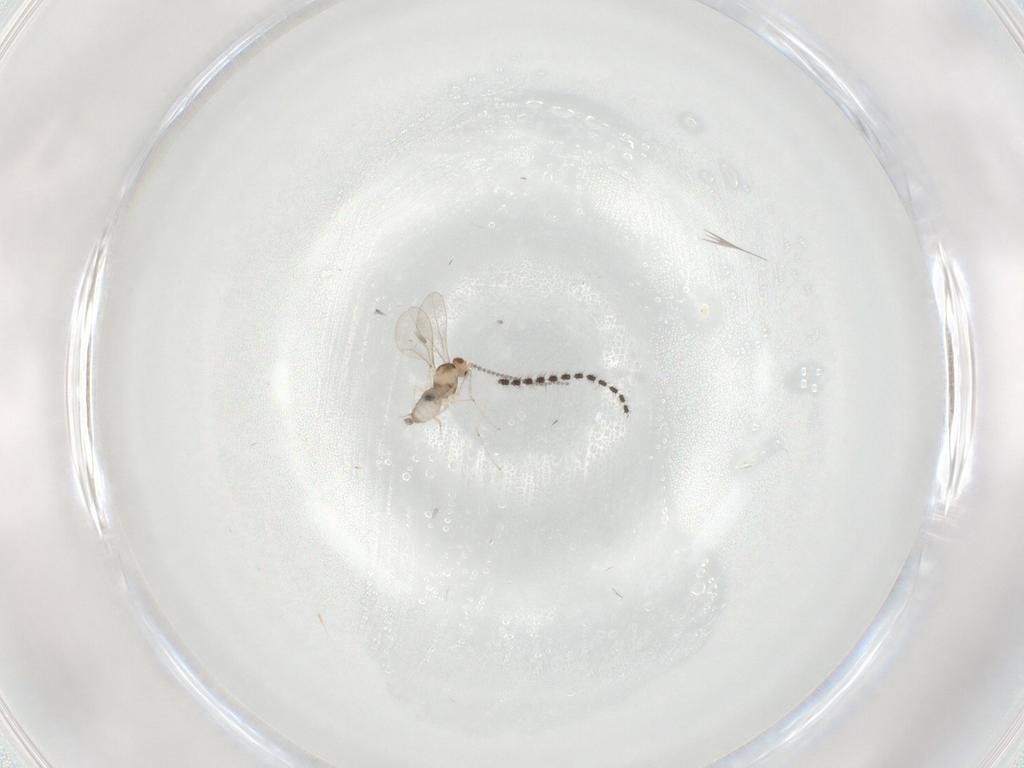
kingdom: Animalia
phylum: Arthropoda
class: Insecta
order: Diptera
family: Sciaridae
